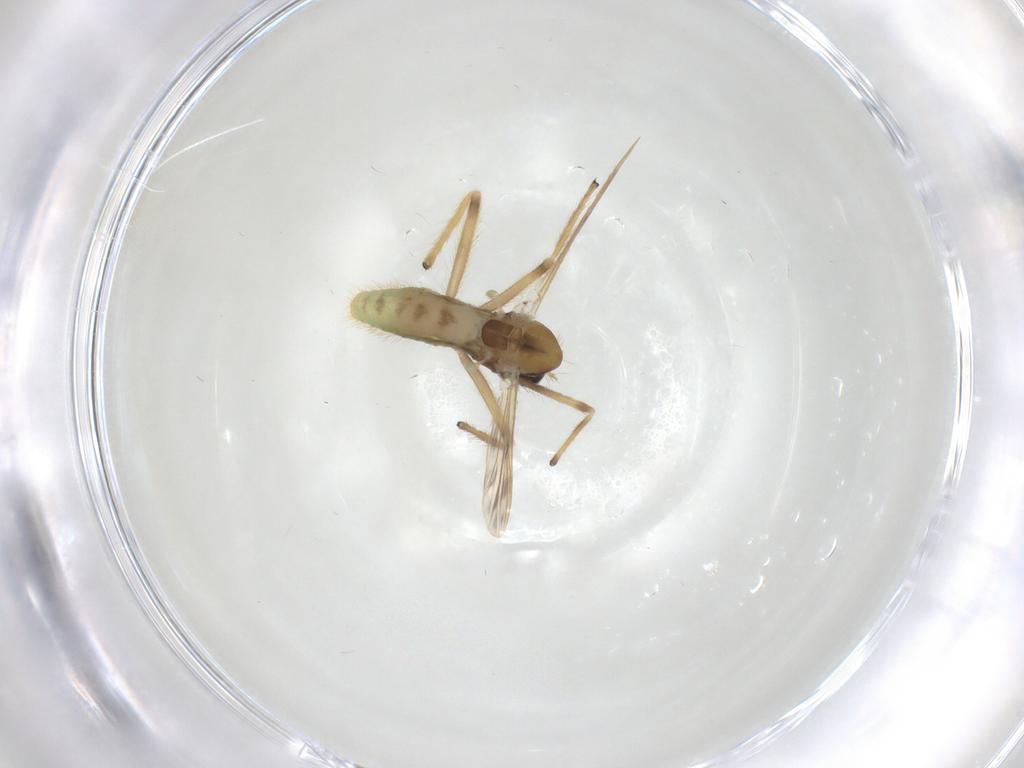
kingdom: Animalia
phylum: Arthropoda
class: Insecta
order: Diptera
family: Chironomidae
